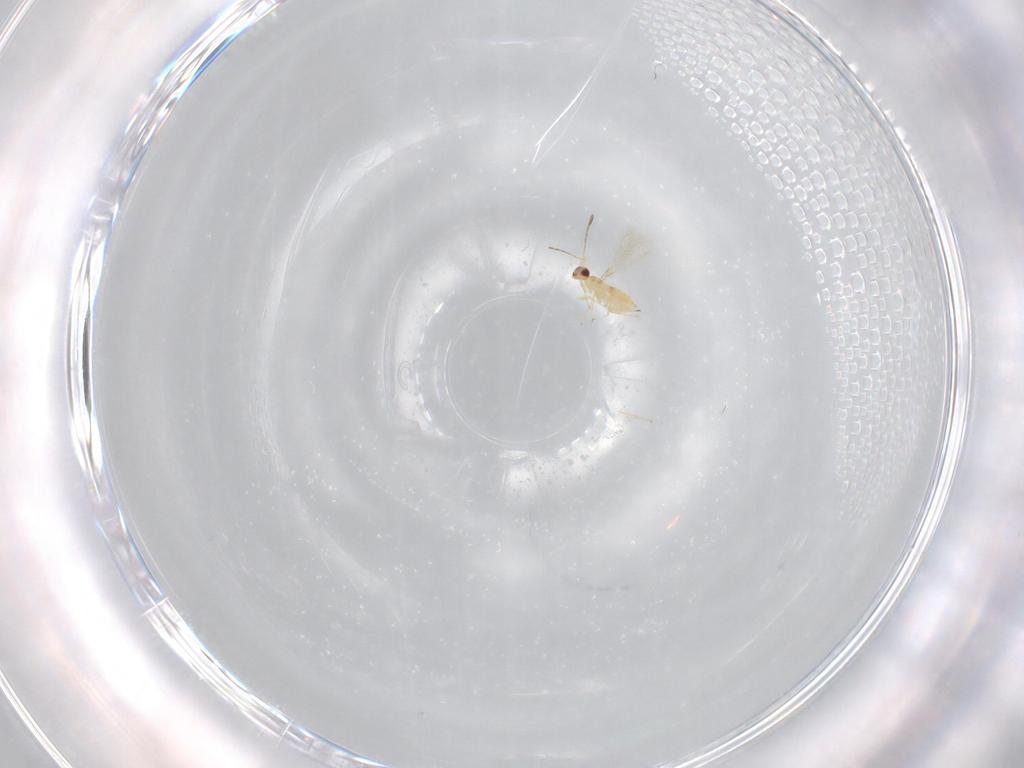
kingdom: Animalia
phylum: Arthropoda
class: Insecta
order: Hymenoptera
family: Mymaridae
